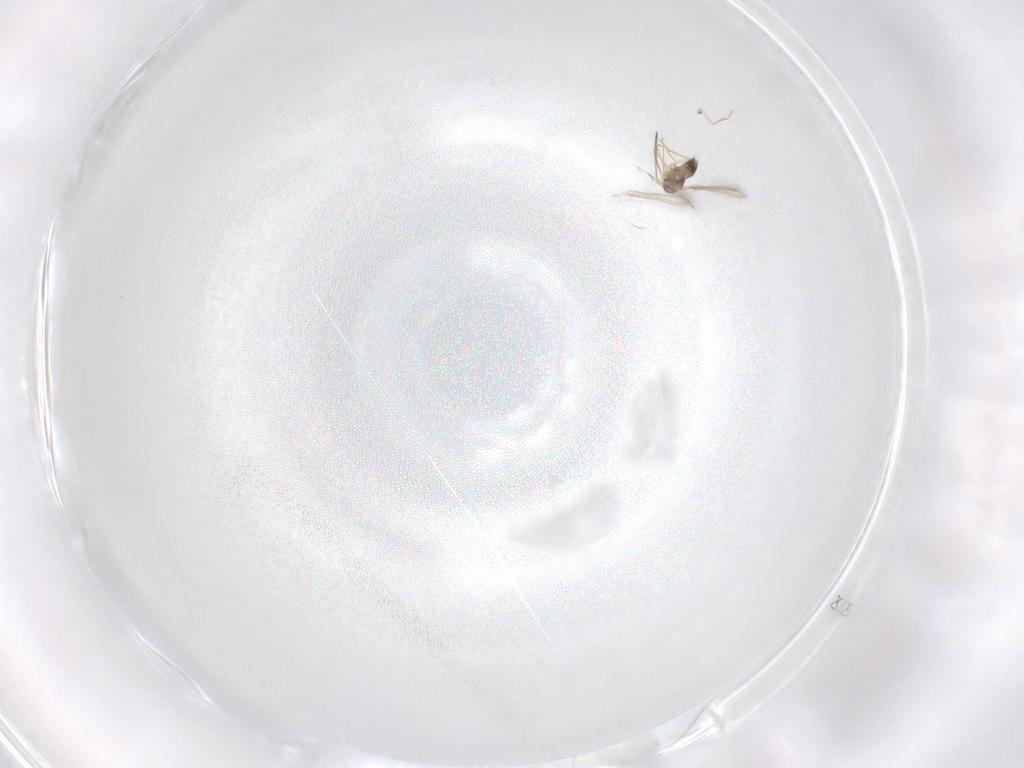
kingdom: Animalia
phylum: Arthropoda
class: Insecta
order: Hymenoptera
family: Mymaridae
